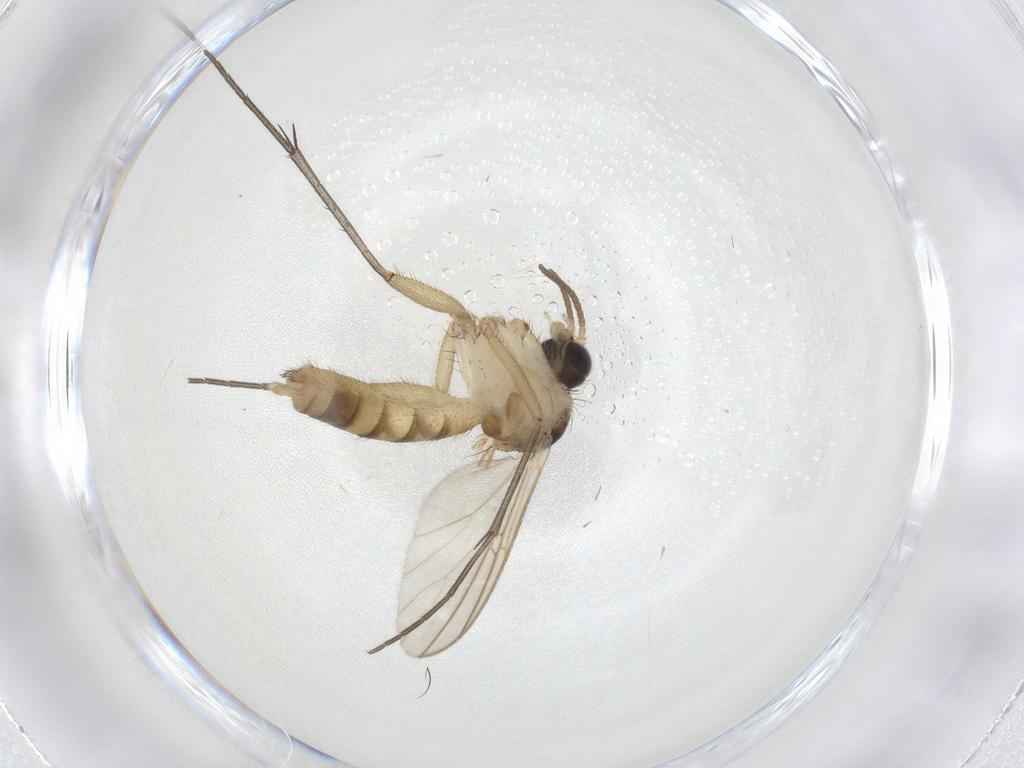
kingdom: Animalia
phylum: Arthropoda
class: Insecta
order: Diptera
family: Mycetophilidae
